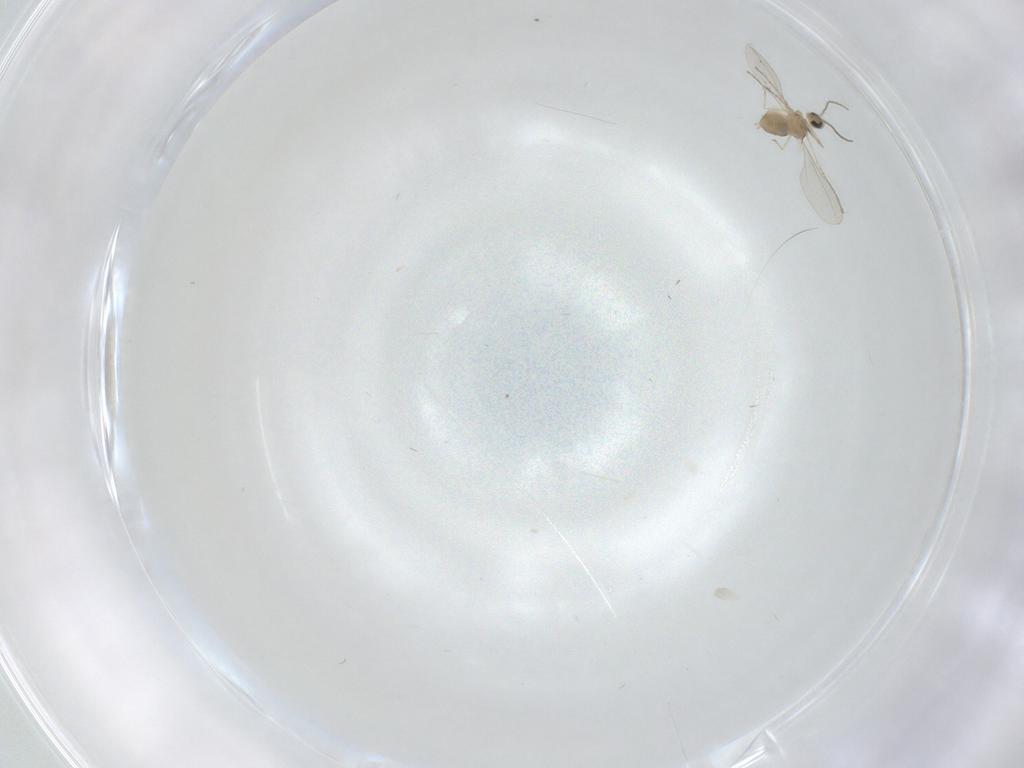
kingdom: Animalia
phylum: Arthropoda
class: Insecta
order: Diptera
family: Cecidomyiidae
